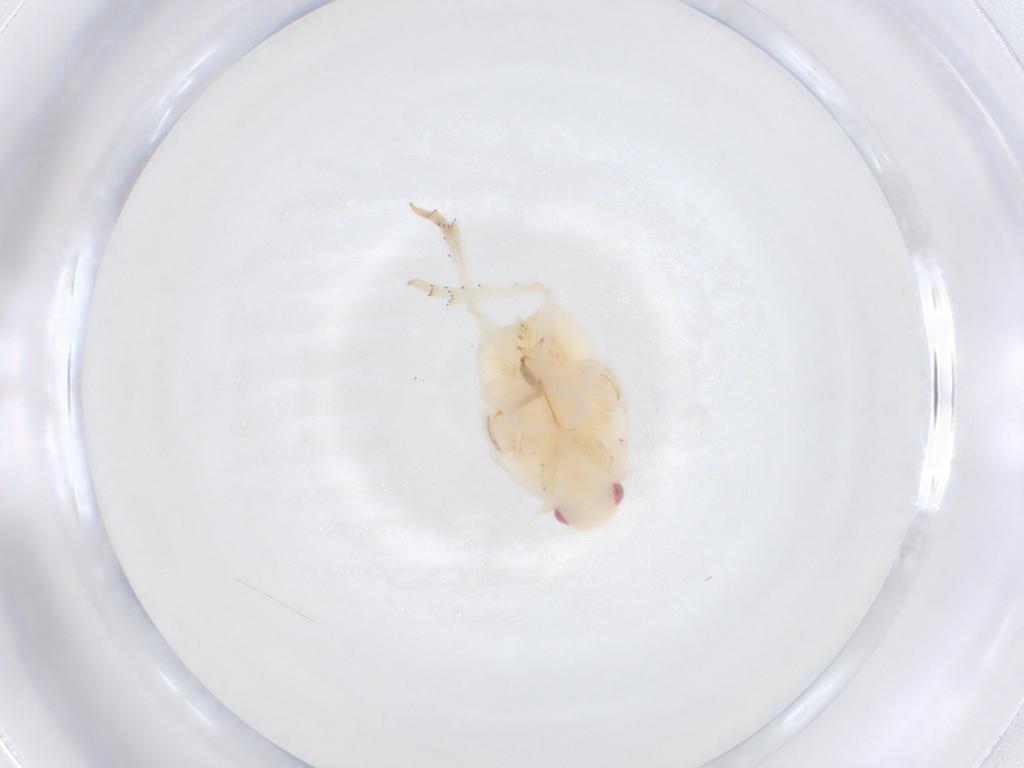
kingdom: Animalia
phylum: Arthropoda
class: Insecta
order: Hemiptera
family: Flatidae
